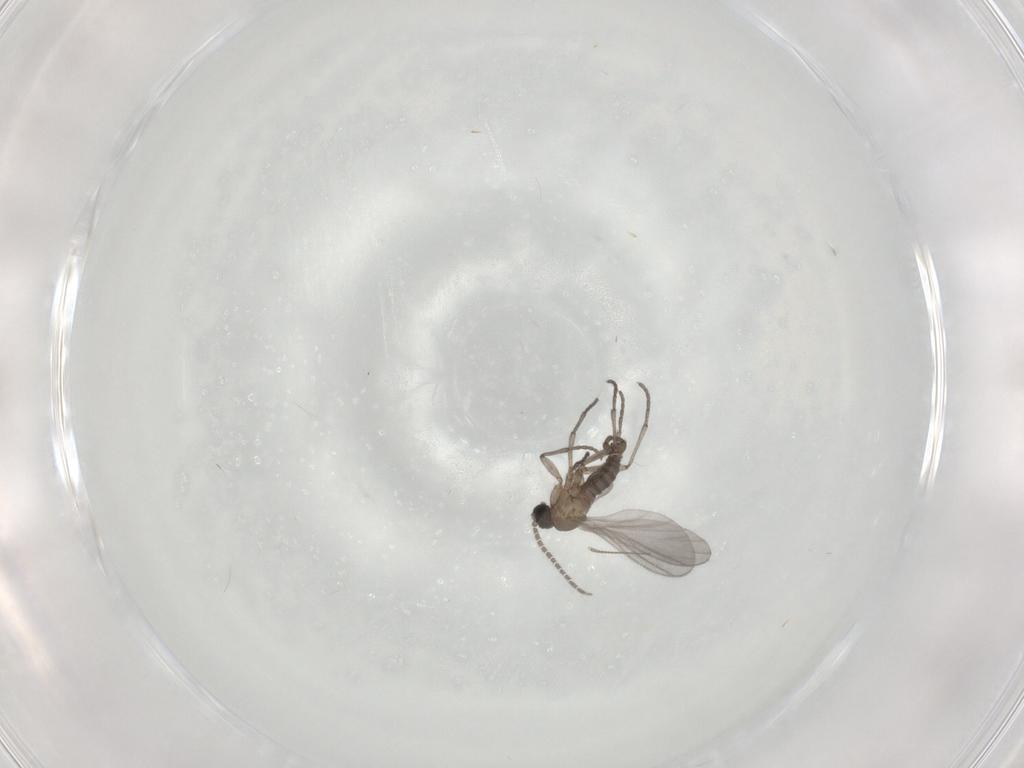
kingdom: Animalia
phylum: Arthropoda
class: Insecta
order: Diptera
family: Sciaridae
